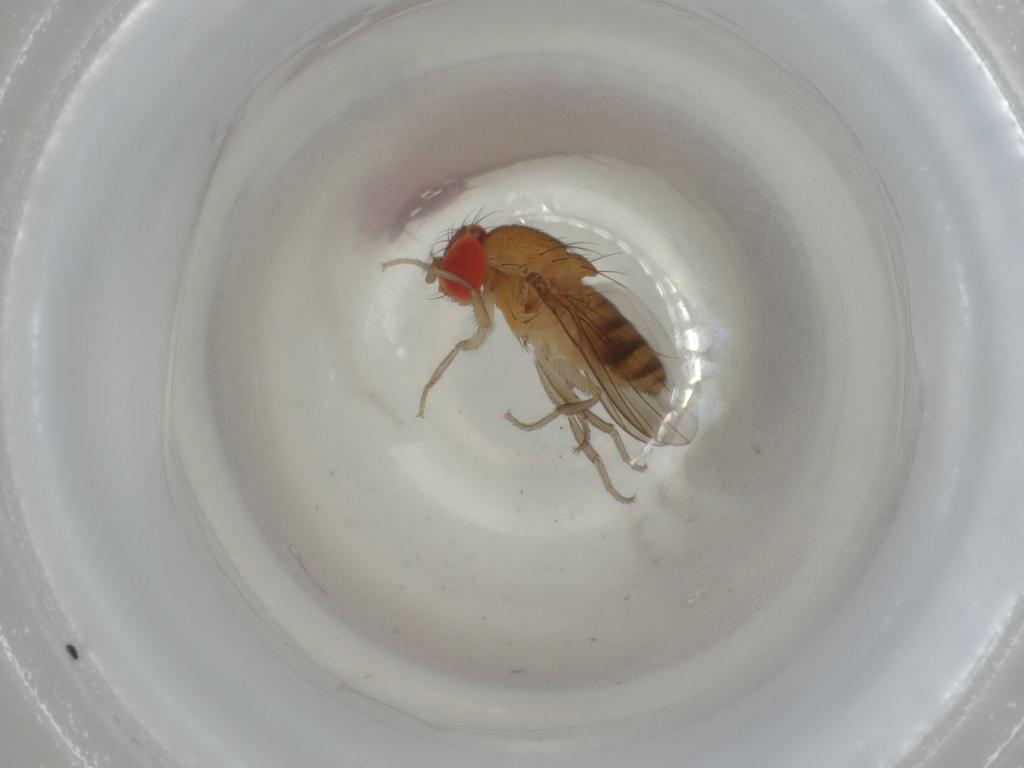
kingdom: Animalia
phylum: Arthropoda
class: Insecta
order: Diptera
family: Drosophilidae
